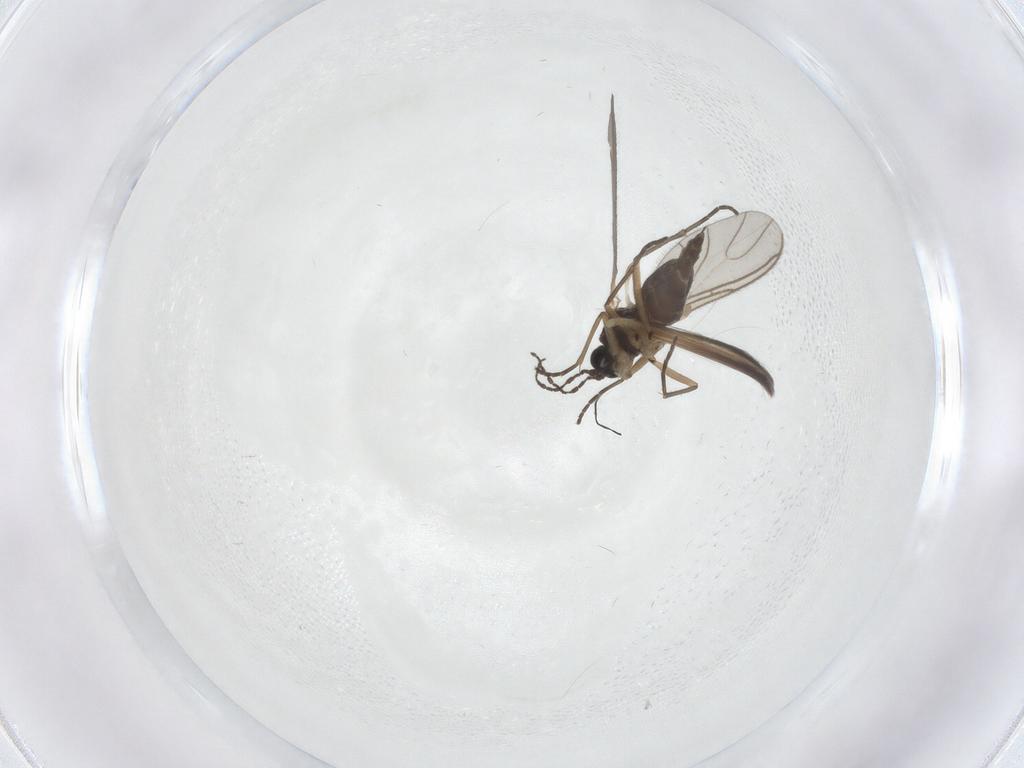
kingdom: Animalia
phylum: Arthropoda
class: Insecta
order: Diptera
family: Sciaridae
